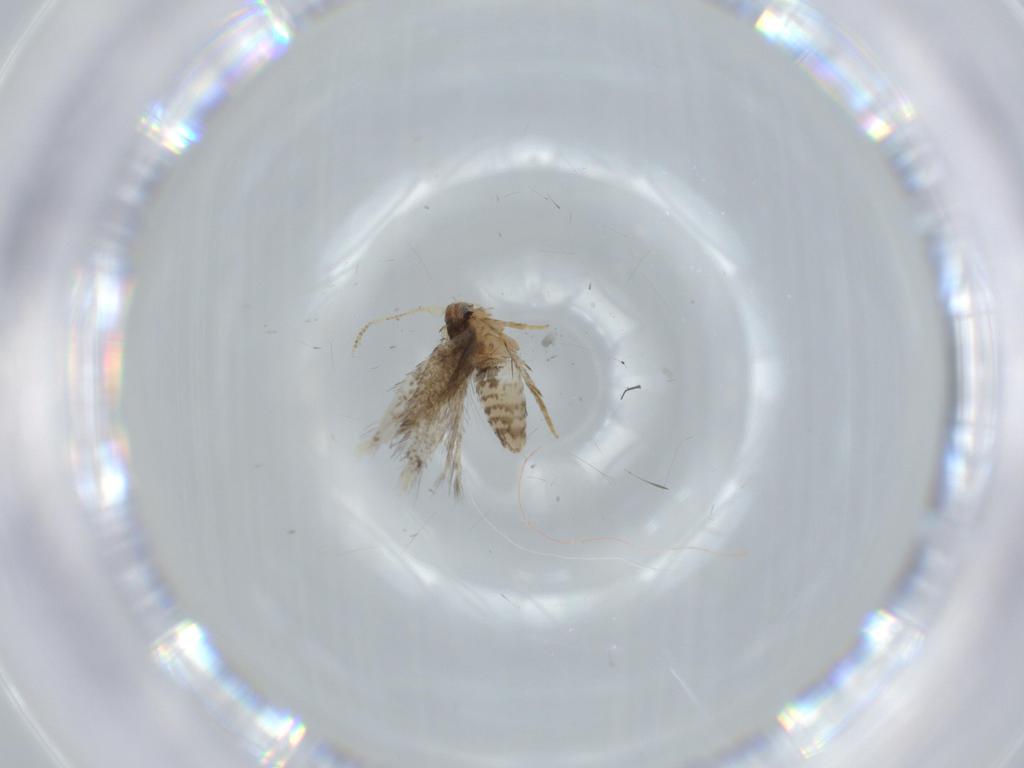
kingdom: Animalia
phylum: Arthropoda
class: Insecta
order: Lepidoptera
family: Nepticulidae
